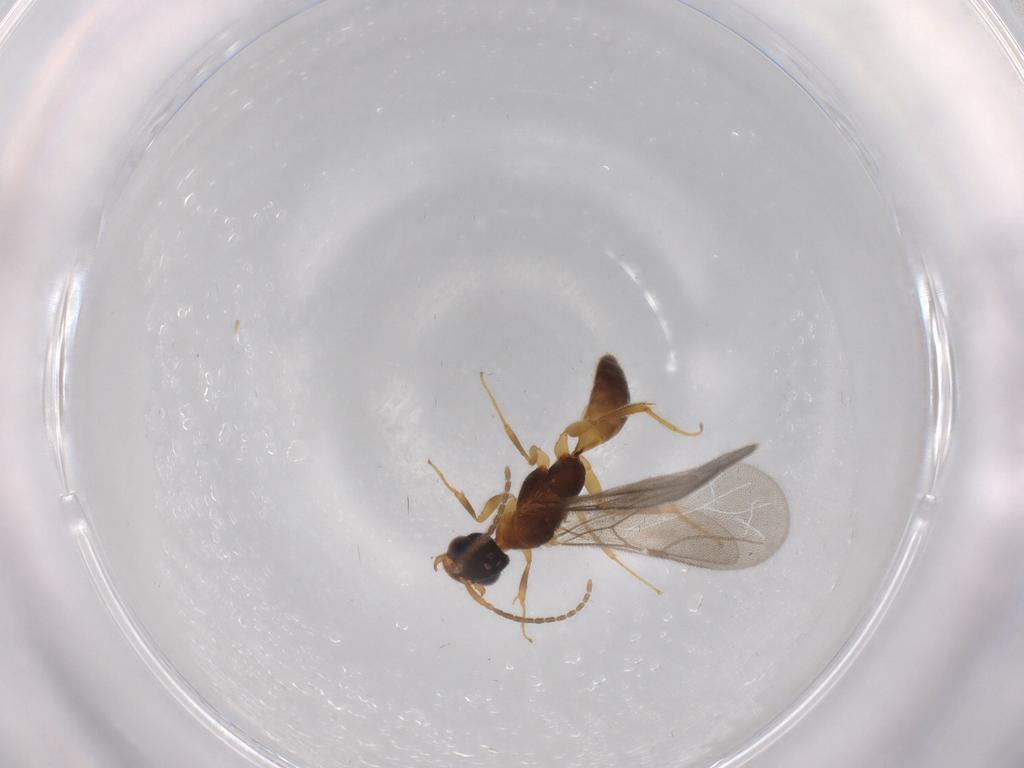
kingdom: Animalia
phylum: Arthropoda
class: Insecta
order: Hymenoptera
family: Bethylidae
